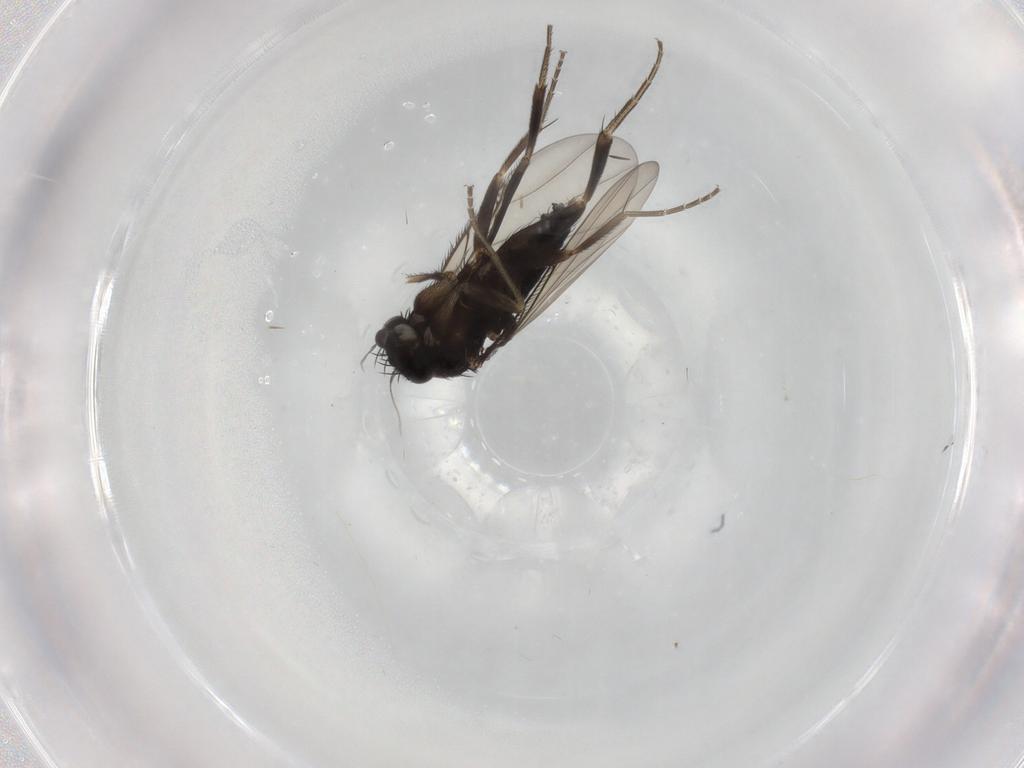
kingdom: Animalia
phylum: Arthropoda
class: Insecta
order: Diptera
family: Phoridae
